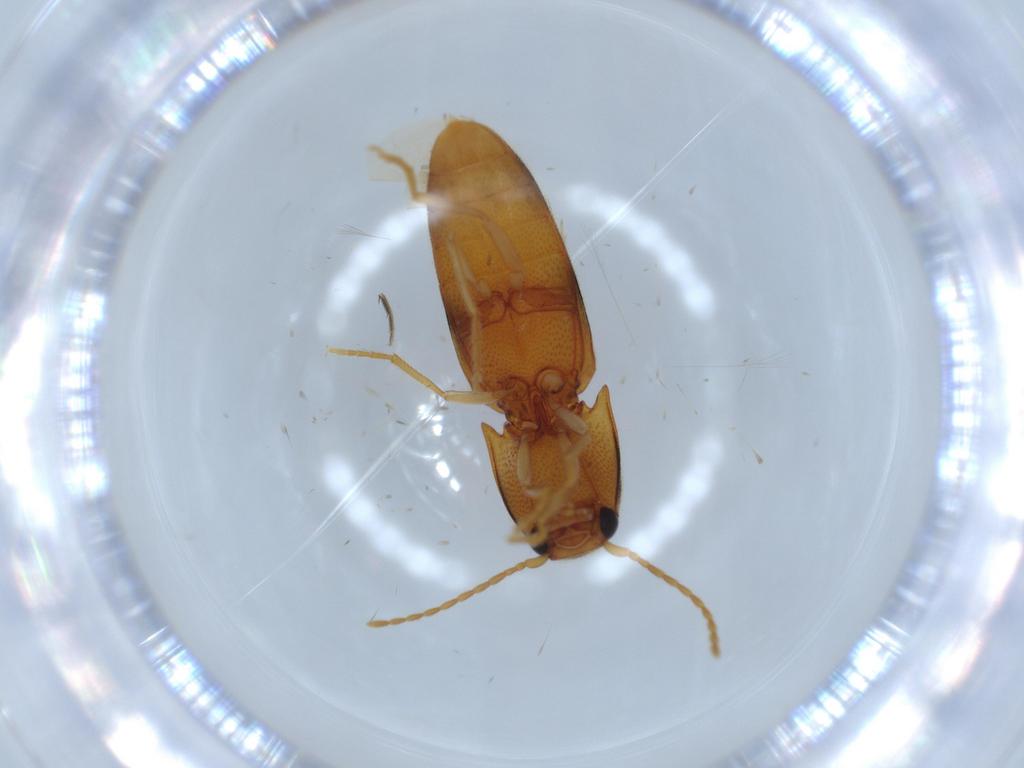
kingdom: Animalia
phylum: Arthropoda
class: Insecta
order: Coleoptera
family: Elateridae
